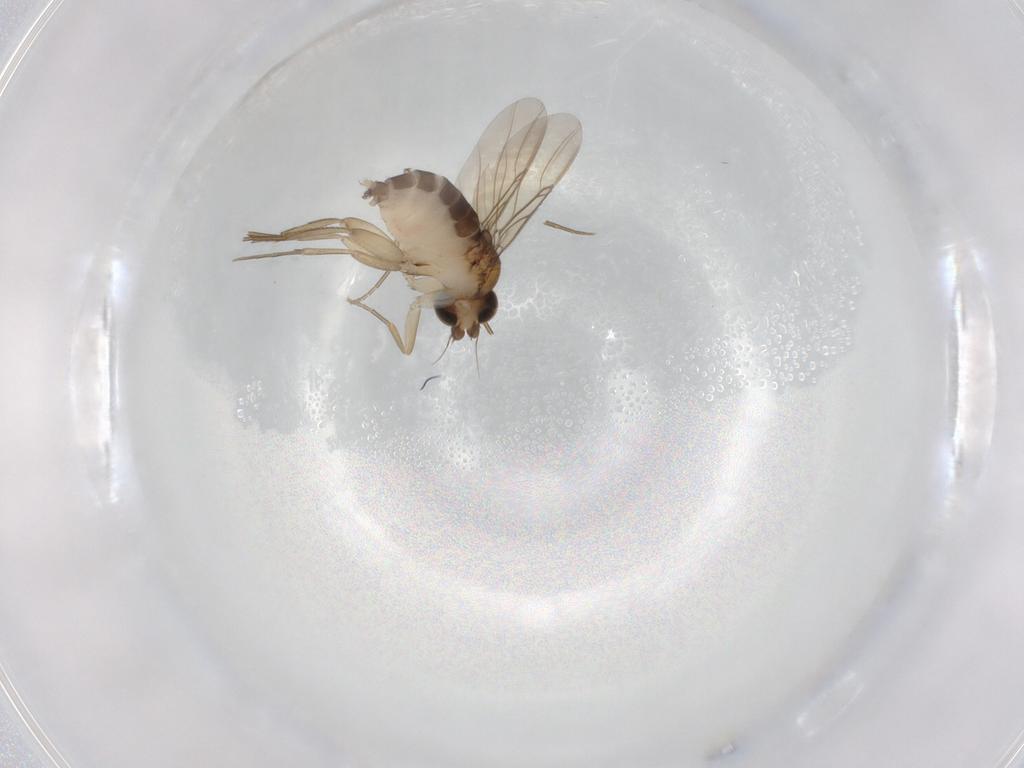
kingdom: Animalia
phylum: Arthropoda
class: Insecta
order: Diptera
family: Phoridae
